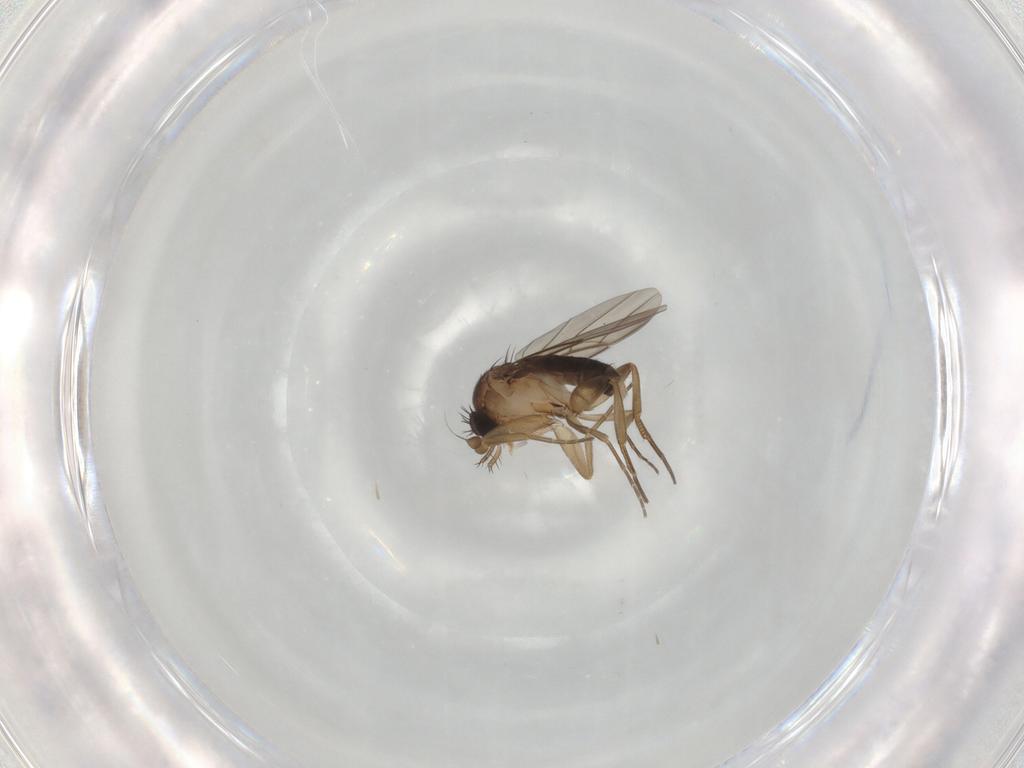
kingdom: Animalia
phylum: Arthropoda
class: Insecta
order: Diptera
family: Phoridae
